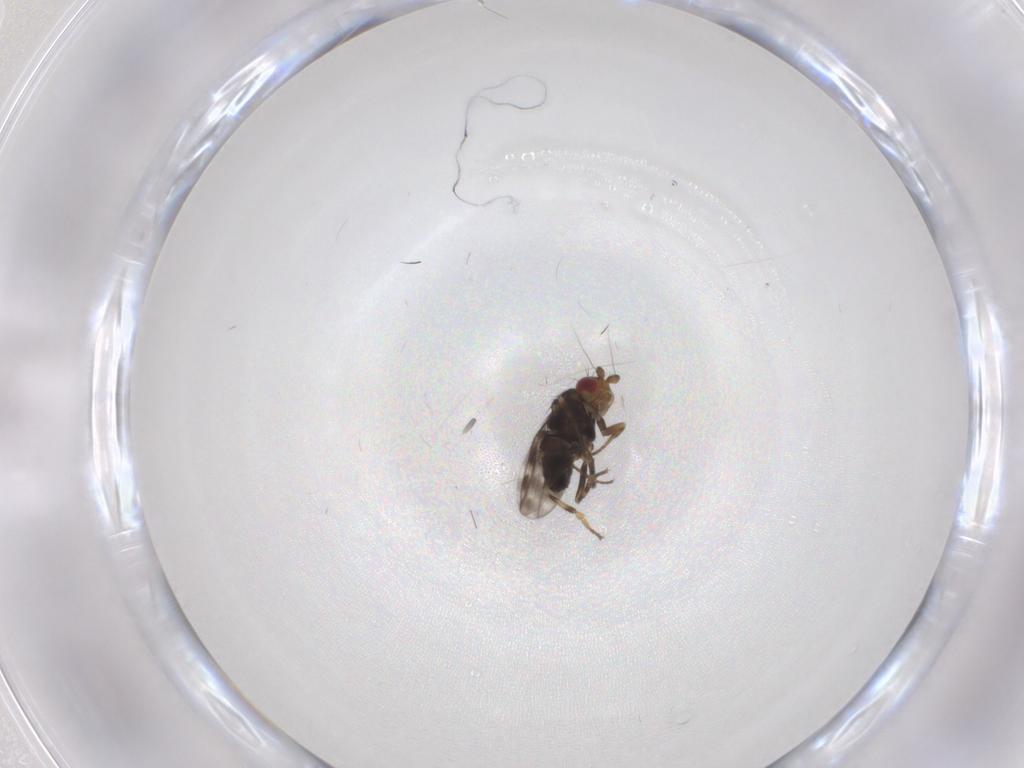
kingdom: Animalia
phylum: Arthropoda
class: Insecta
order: Diptera
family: Sphaeroceridae
